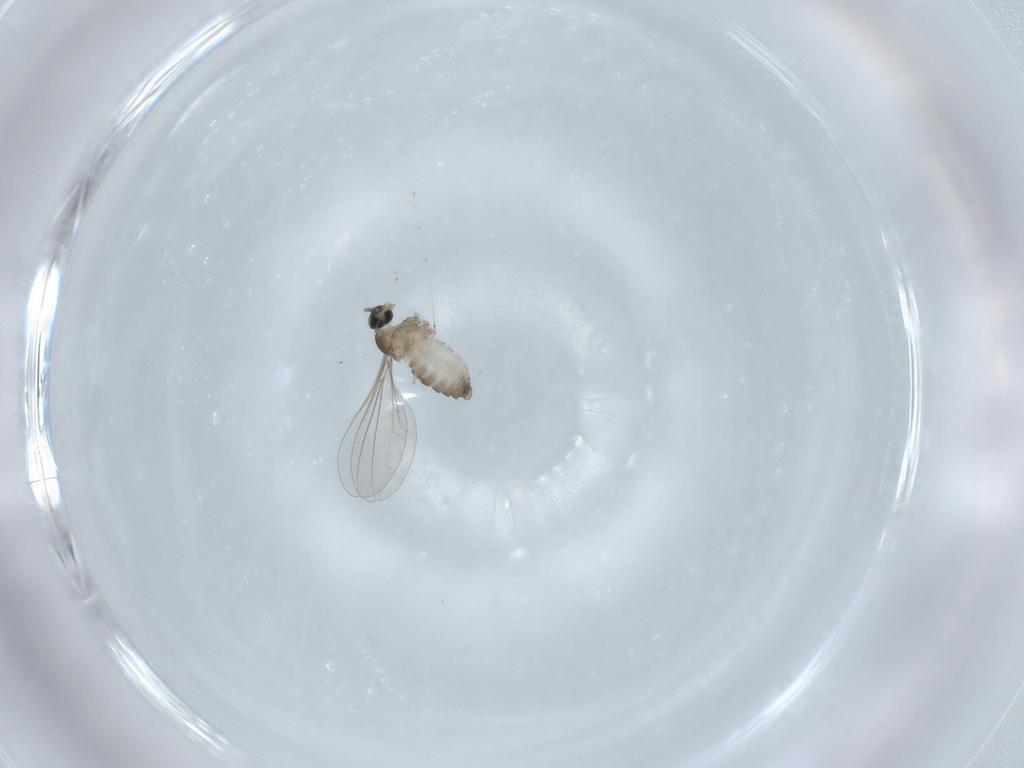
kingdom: Animalia
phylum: Arthropoda
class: Insecta
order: Diptera
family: Cecidomyiidae
